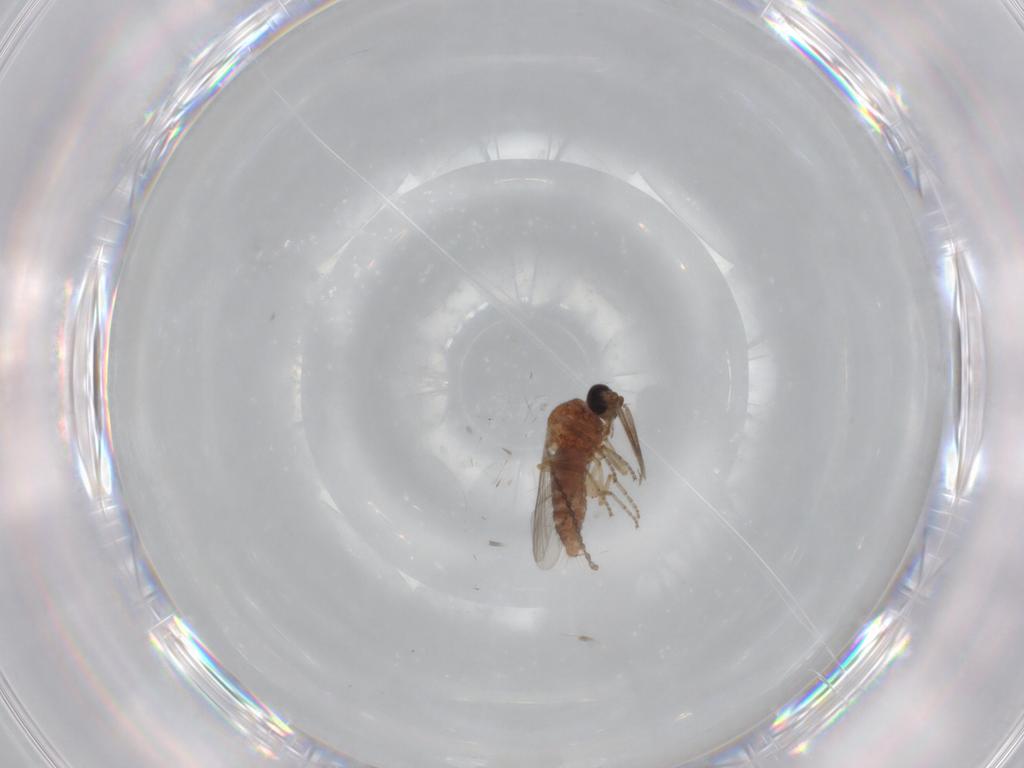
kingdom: Animalia
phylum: Arthropoda
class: Insecta
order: Diptera
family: Ceratopogonidae
